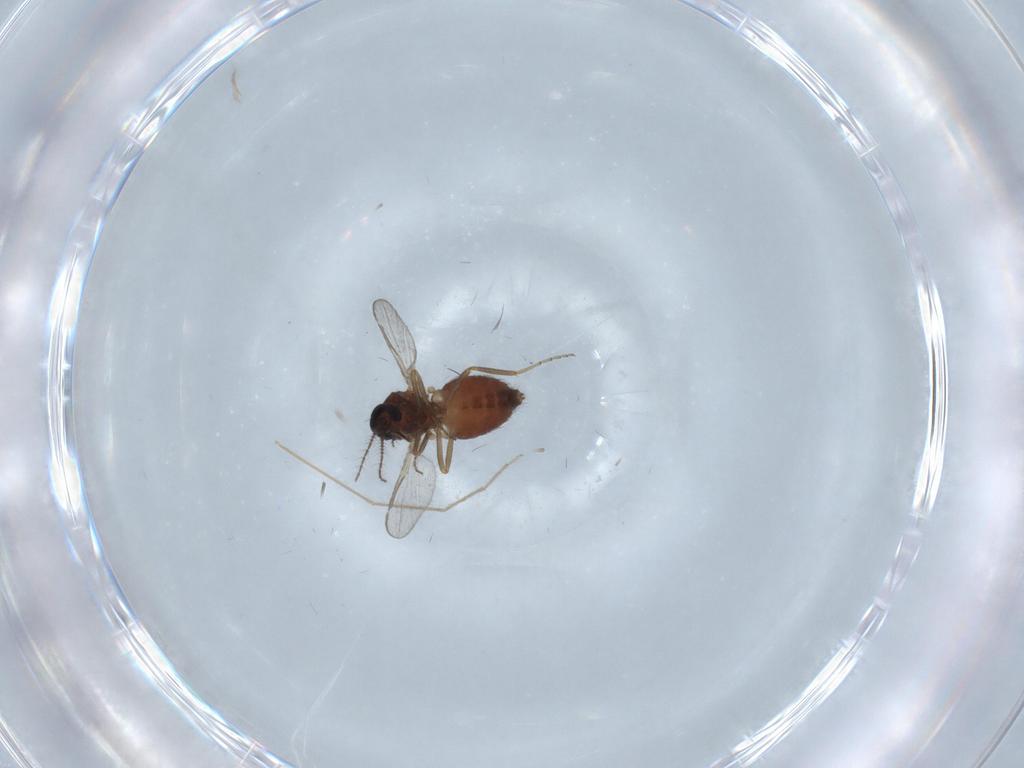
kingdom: Animalia
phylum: Arthropoda
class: Insecta
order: Diptera
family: Ceratopogonidae
